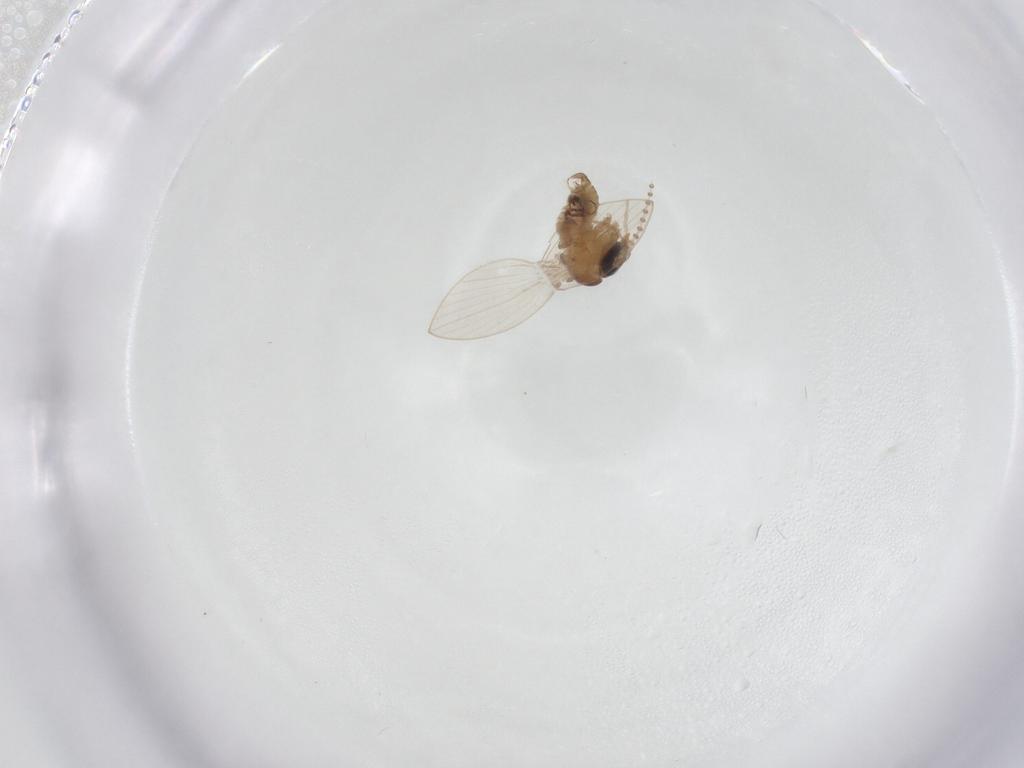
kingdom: Animalia
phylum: Arthropoda
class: Insecta
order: Diptera
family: Psychodidae
